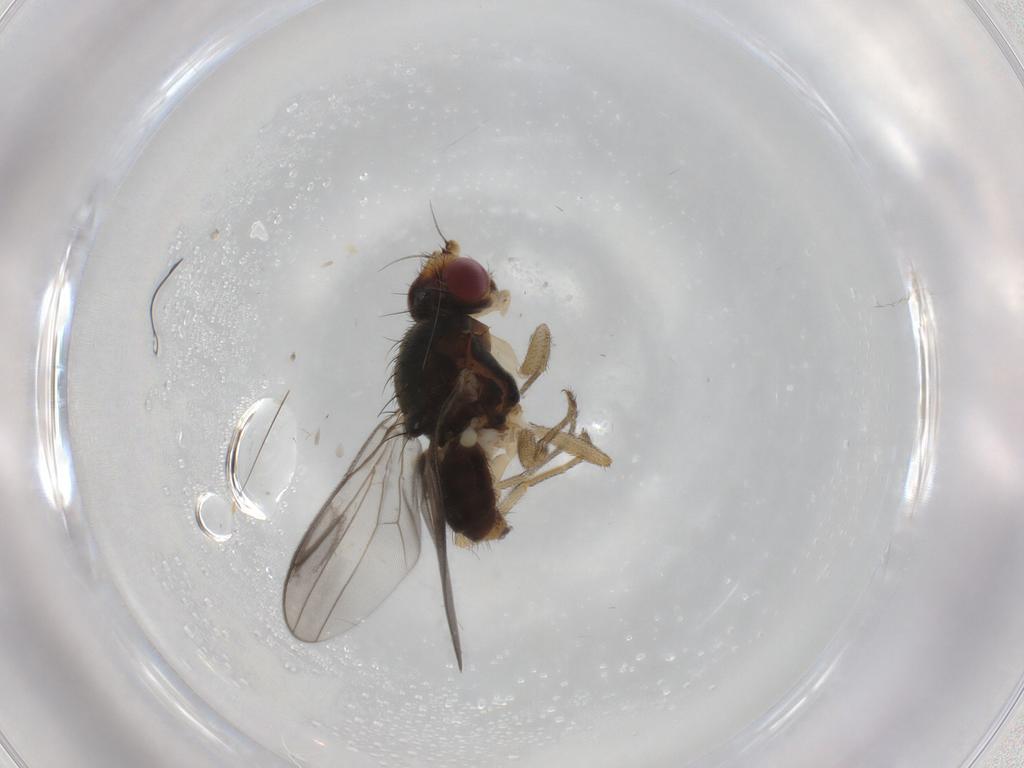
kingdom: Animalia
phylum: Arthropoda
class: Insecta
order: Diptera
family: Chloropidae
